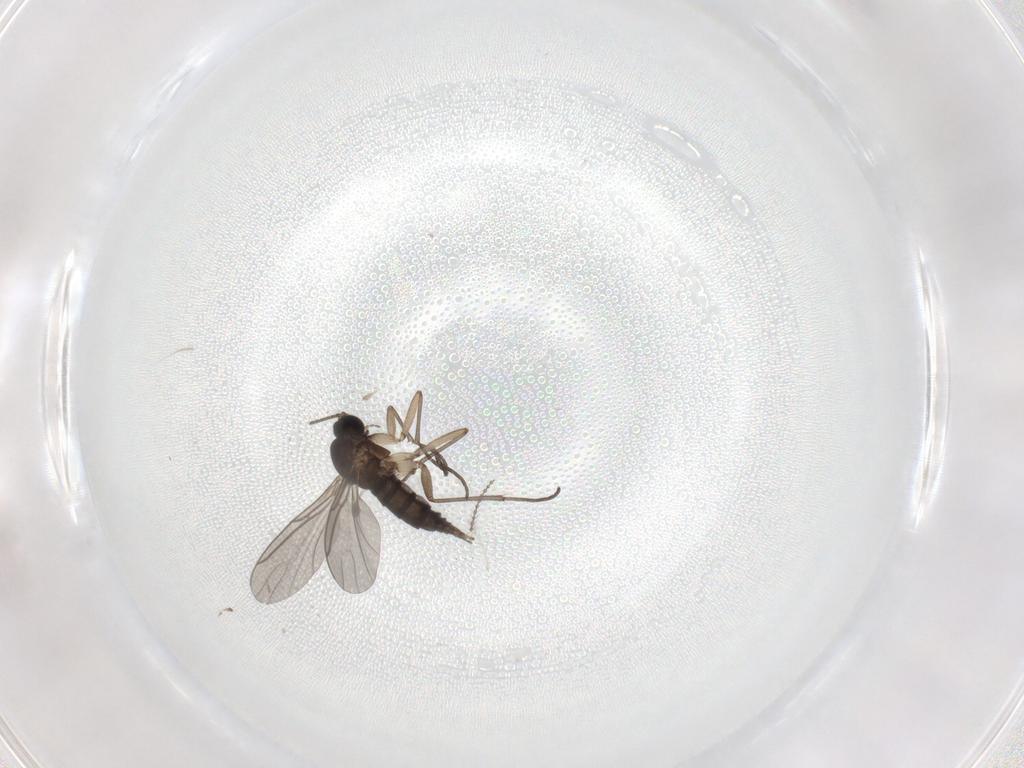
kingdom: Animalia
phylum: Arthropoda
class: Insecta
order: Diptera
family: Sciaridae
